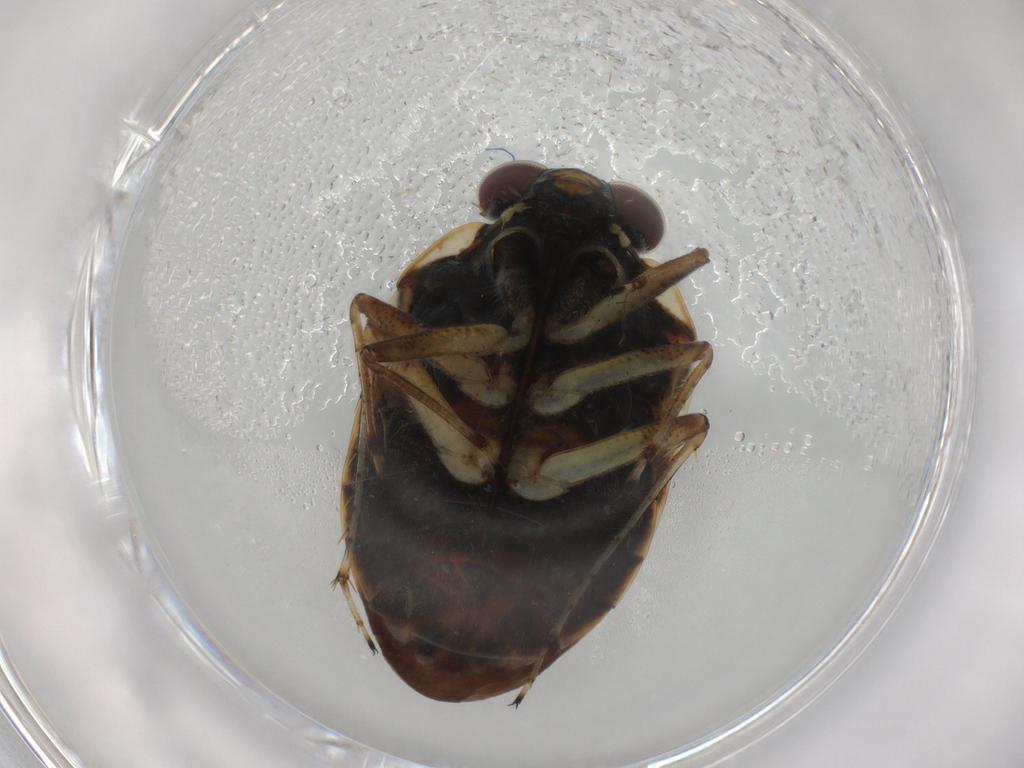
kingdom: Animalia
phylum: Arthropoda
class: Insecta
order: Hemiptera
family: Ochteridae
